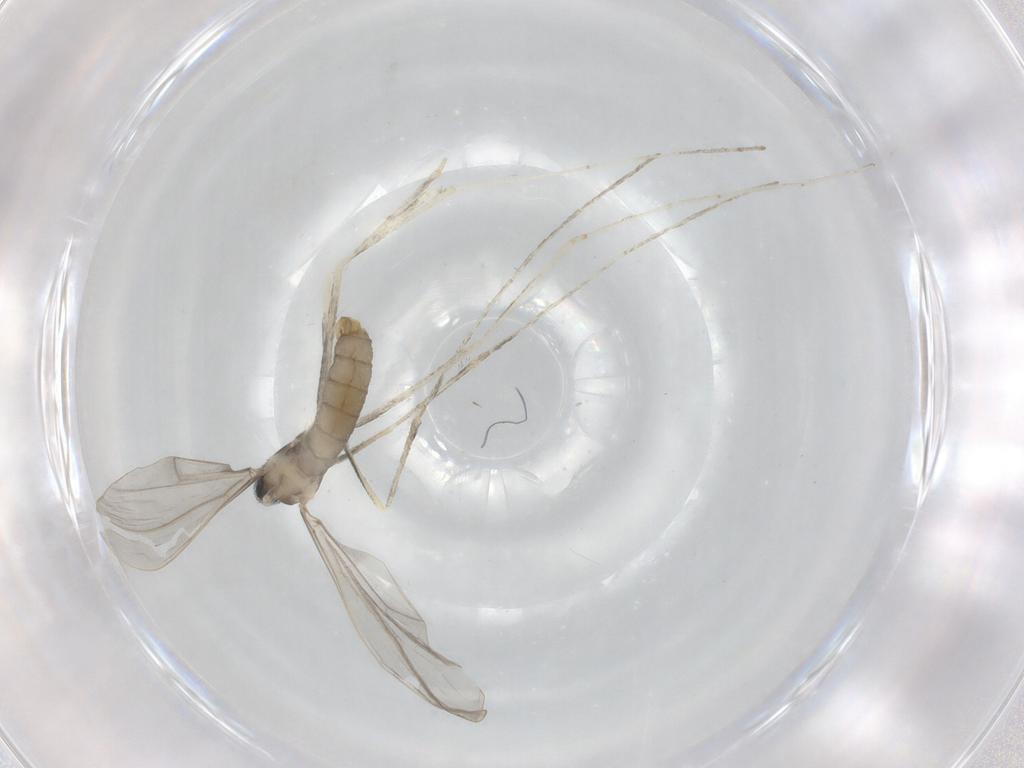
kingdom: Animalia
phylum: Arthropoda
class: Insecta
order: Diptera
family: Cecidomyiidae
